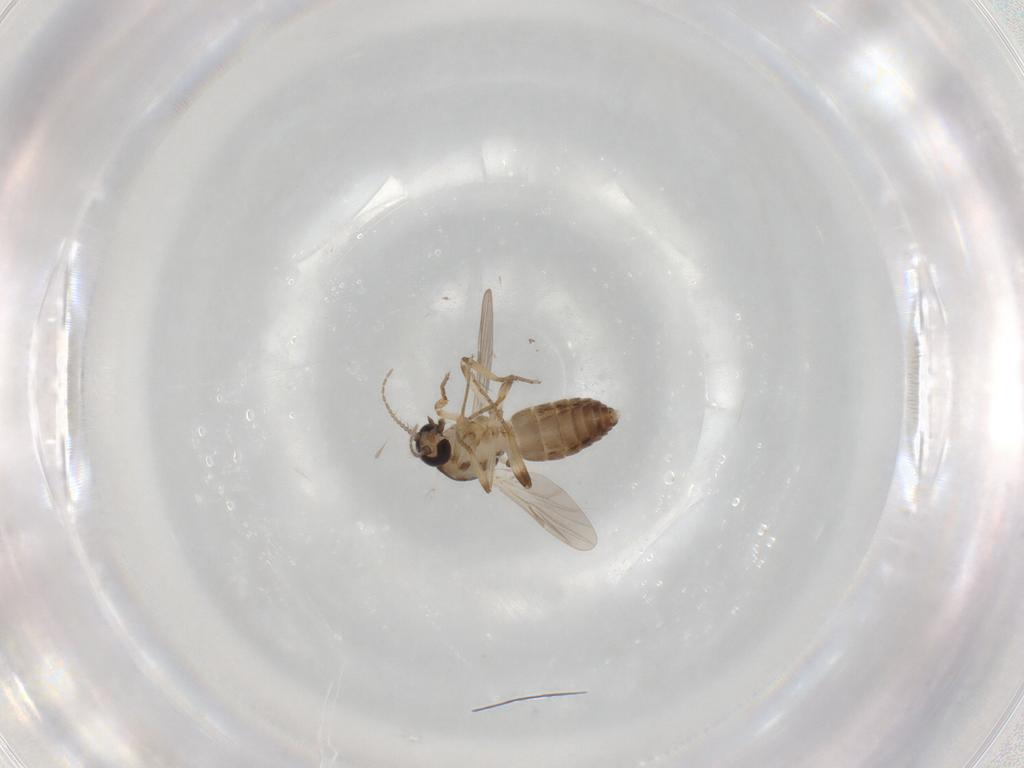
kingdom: Animalia
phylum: Arthropoda
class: Insecta
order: Diptera
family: Ceratopogonidae
